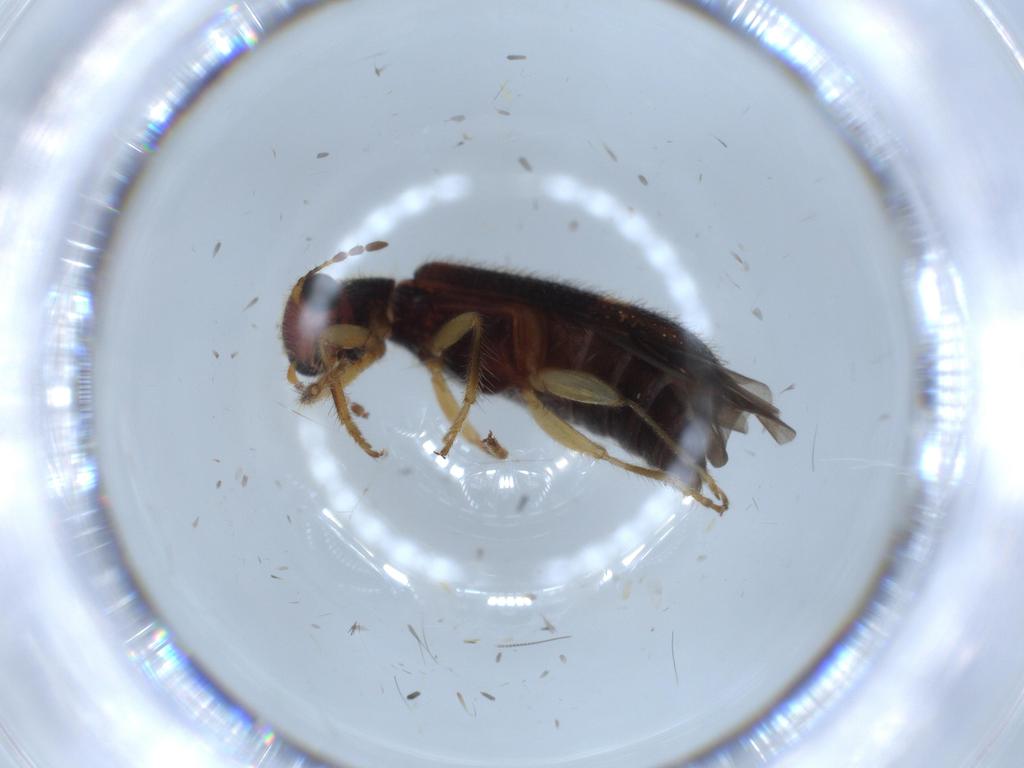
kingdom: Animalia
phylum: Arthropoda
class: Insecta
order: Coleoptera
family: Cleridae
